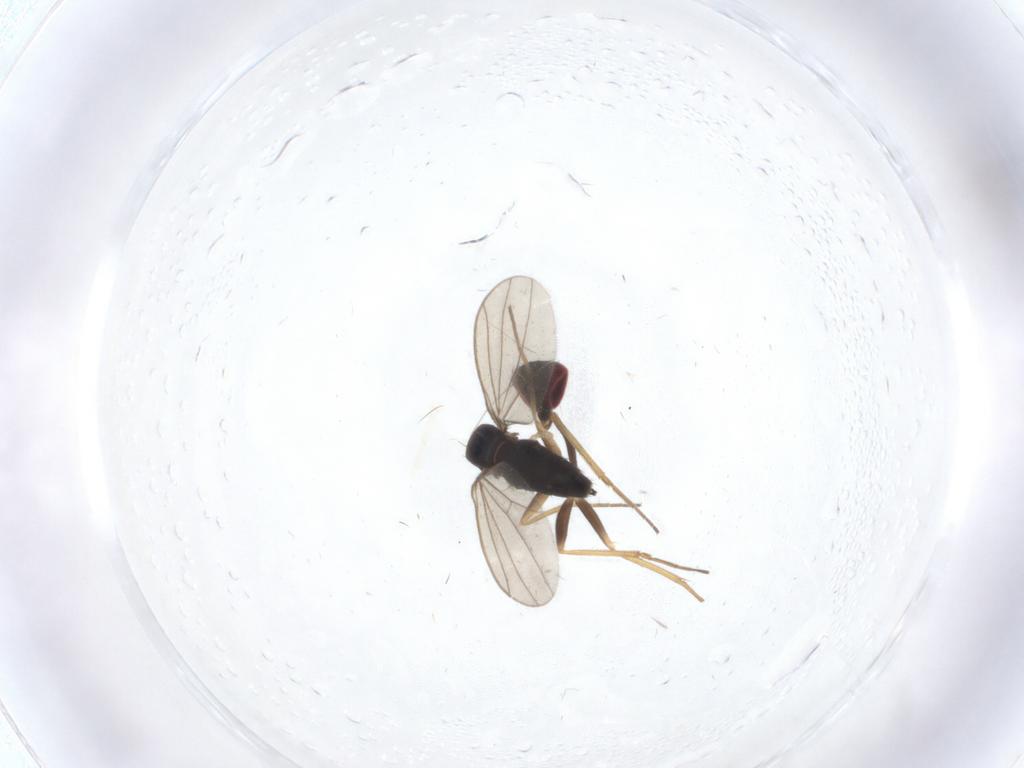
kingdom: Animalia
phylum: Arthropoda
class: Insecta
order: Diptera
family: Dolichopodidae
